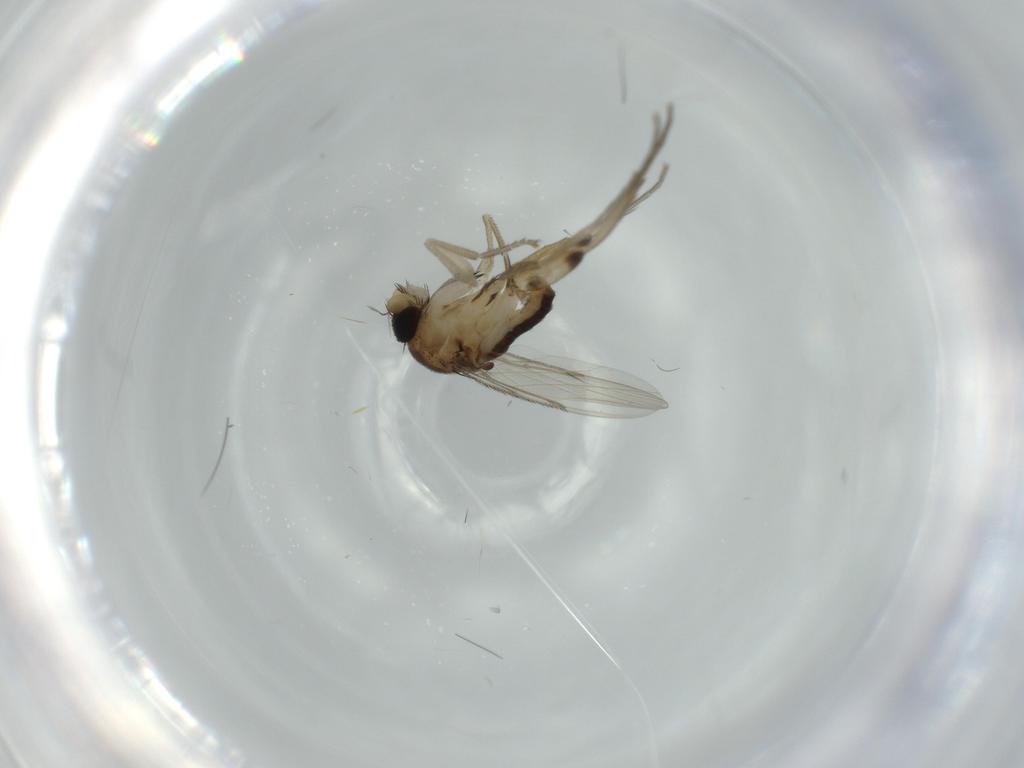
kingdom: Animalia
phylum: Arthropoda
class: Insecta
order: Diptera
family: Phoridae
